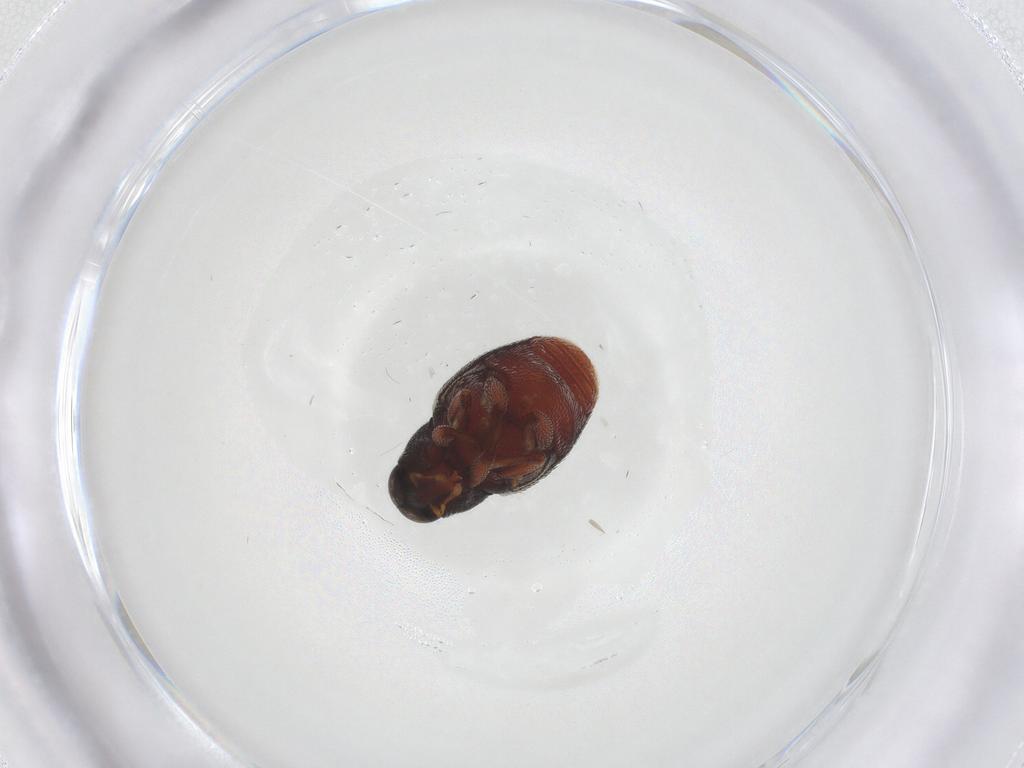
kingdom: Animalia
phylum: Arthropoda
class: Insecta
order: Coleoptera
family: Curculionidae
